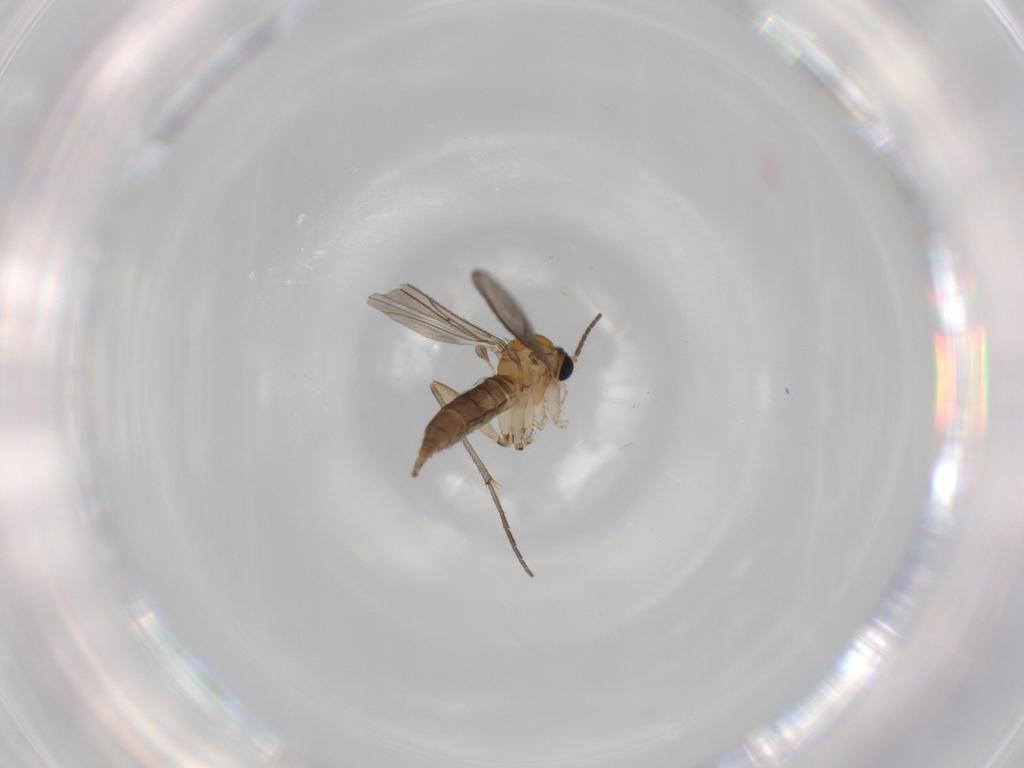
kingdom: Animalia
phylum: Arthropoda
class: Insecta
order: Diptera
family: Sciaridae
